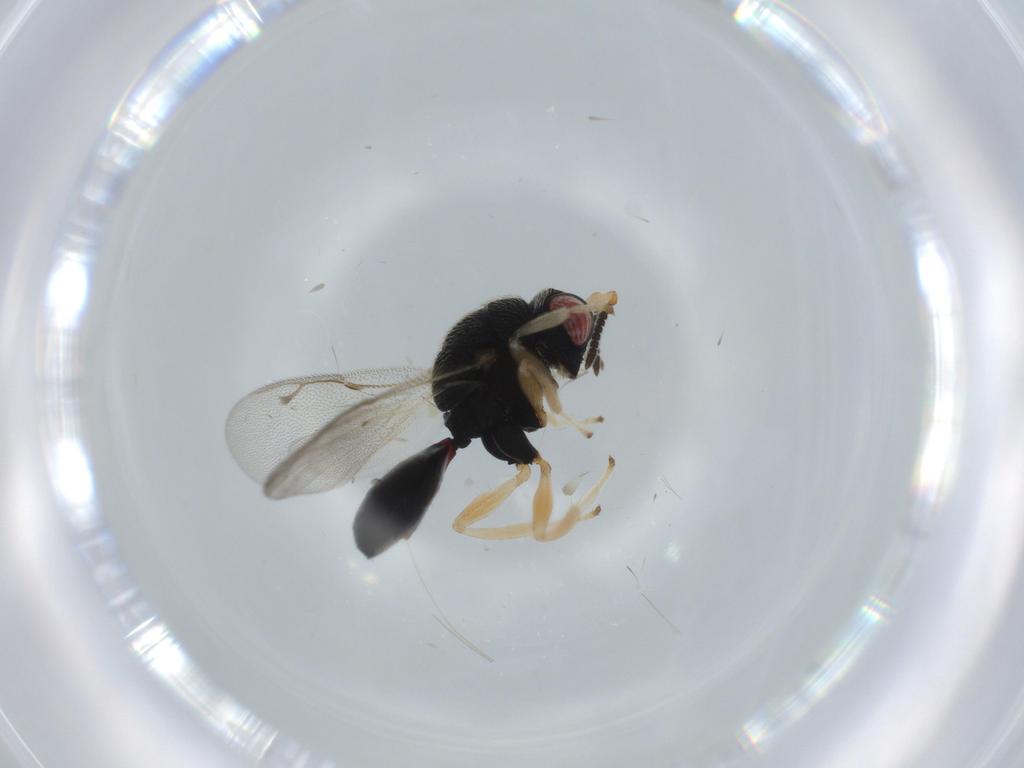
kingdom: Animalia
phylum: Arthropoda
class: Insecta
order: Hymenoptera
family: Eurytomidae
